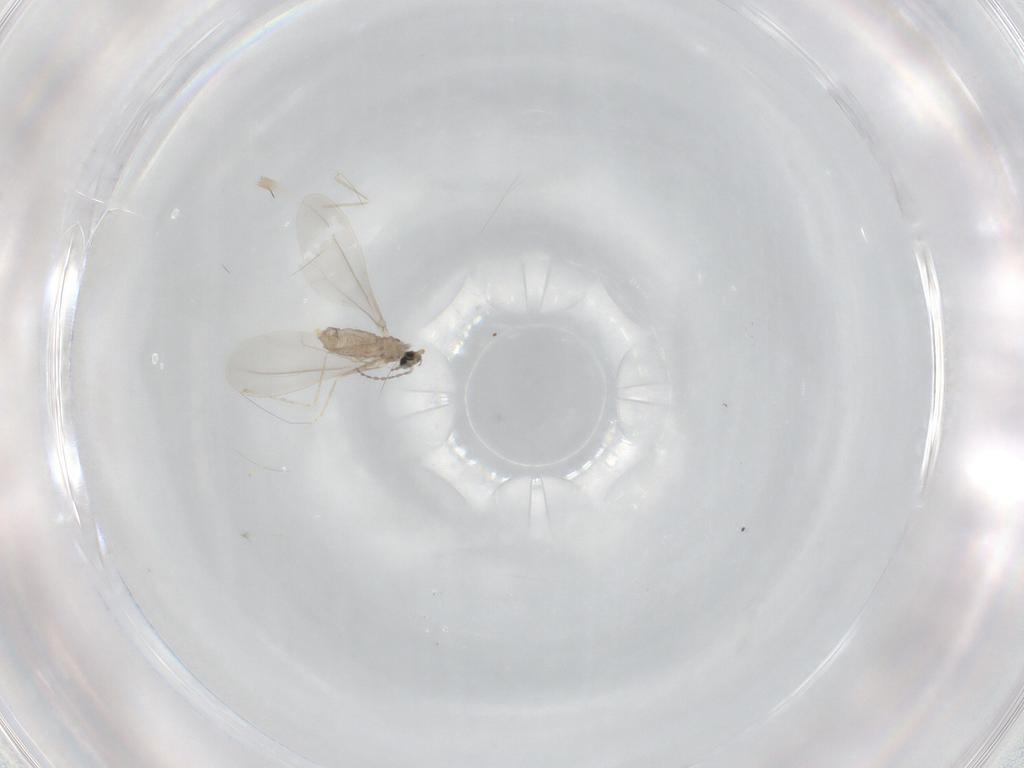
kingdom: Animalia
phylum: Arthropoda
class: Insecta
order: Diptera
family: Cecidomyiidae
